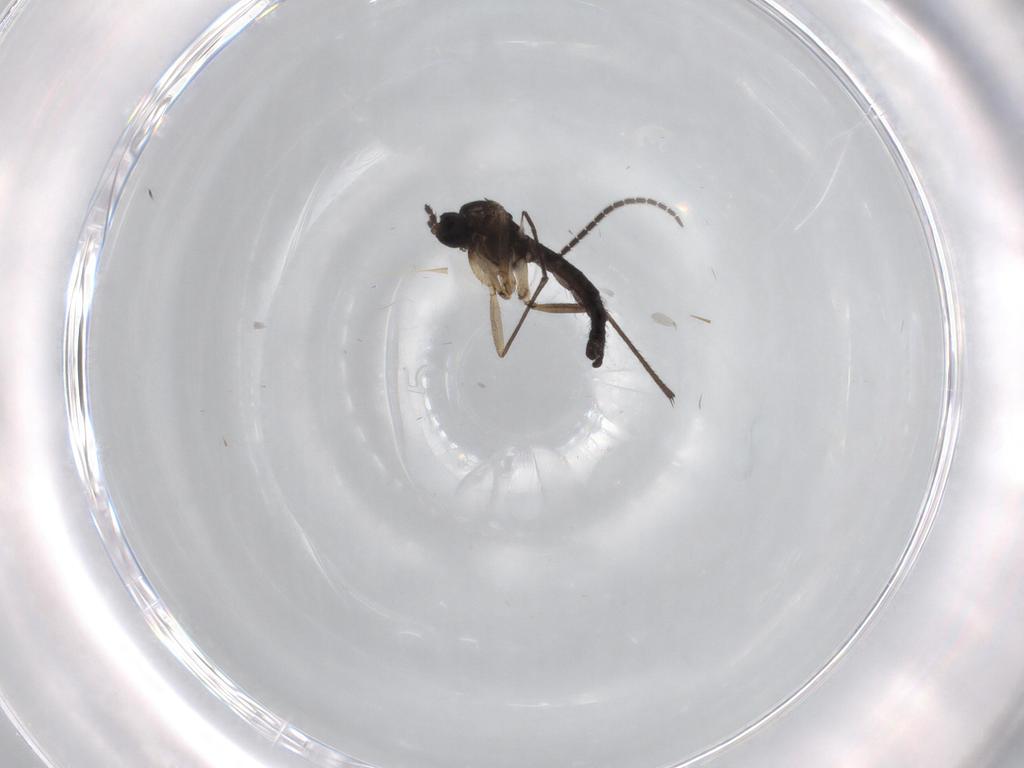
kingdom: Animalia
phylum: Arthropoda
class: Insecta
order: Diptera
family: Sciaridae
